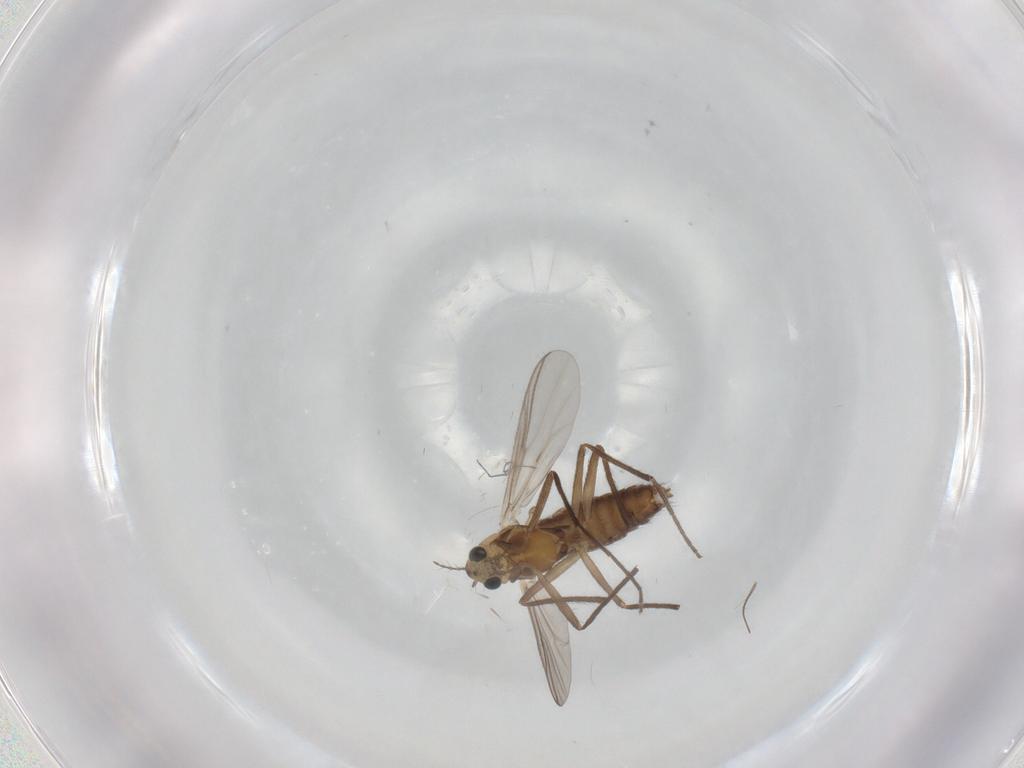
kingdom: Animalia
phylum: Arthropoda
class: Insecta
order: Diptera
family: Chironomidae
